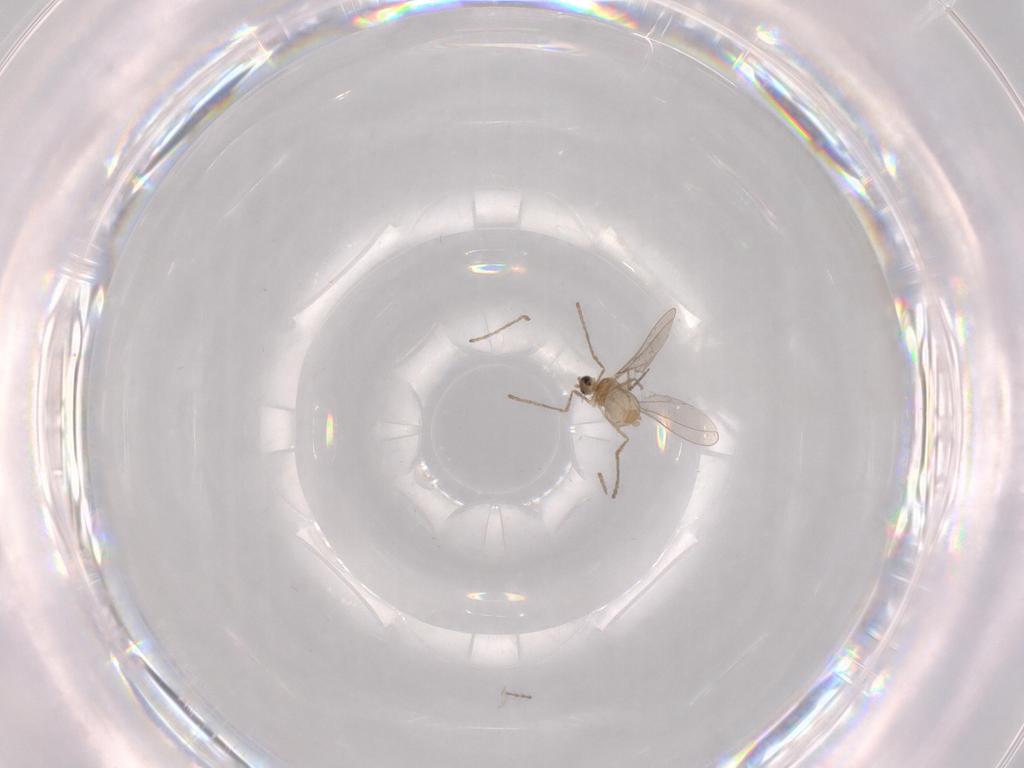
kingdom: Animalia
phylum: Arthropoda
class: Insecta
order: Diptera
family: Cecidomyiidae
